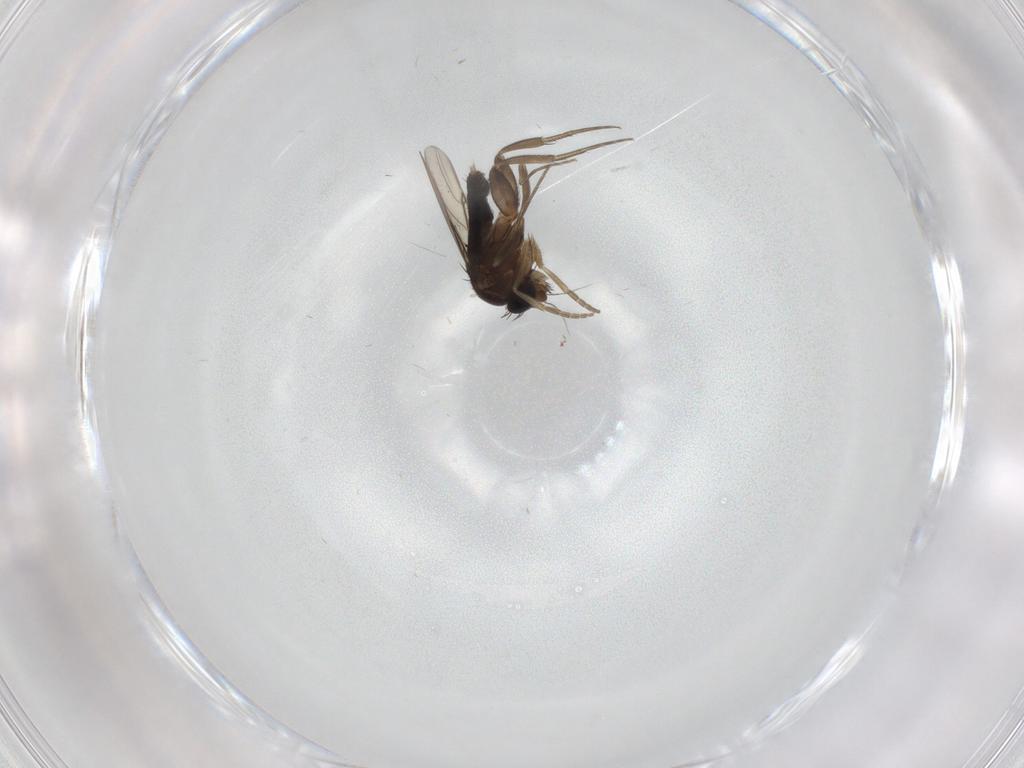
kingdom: Animalia
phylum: Arthropoda
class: Insecta
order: Diptera
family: Phoridae
